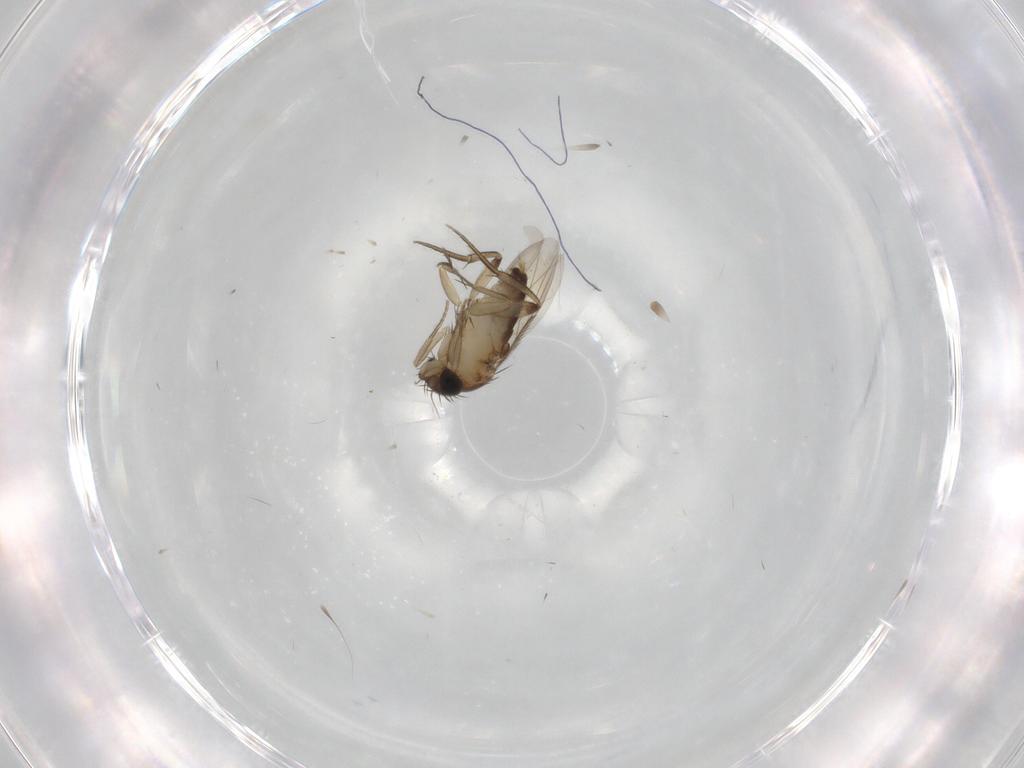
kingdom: Animalia
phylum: Arthropoda
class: Insecta
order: Diptera
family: Phoridae
